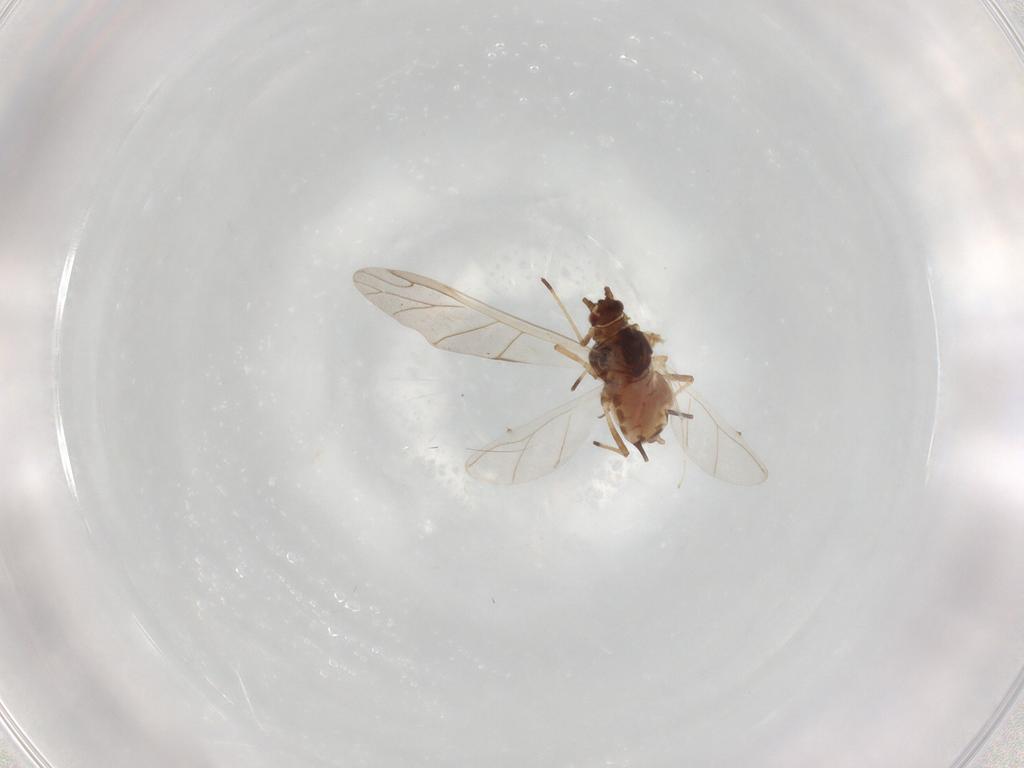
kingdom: Animalia
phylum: Arthropoda
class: Insecta
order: Hemiptera
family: Aphididae
